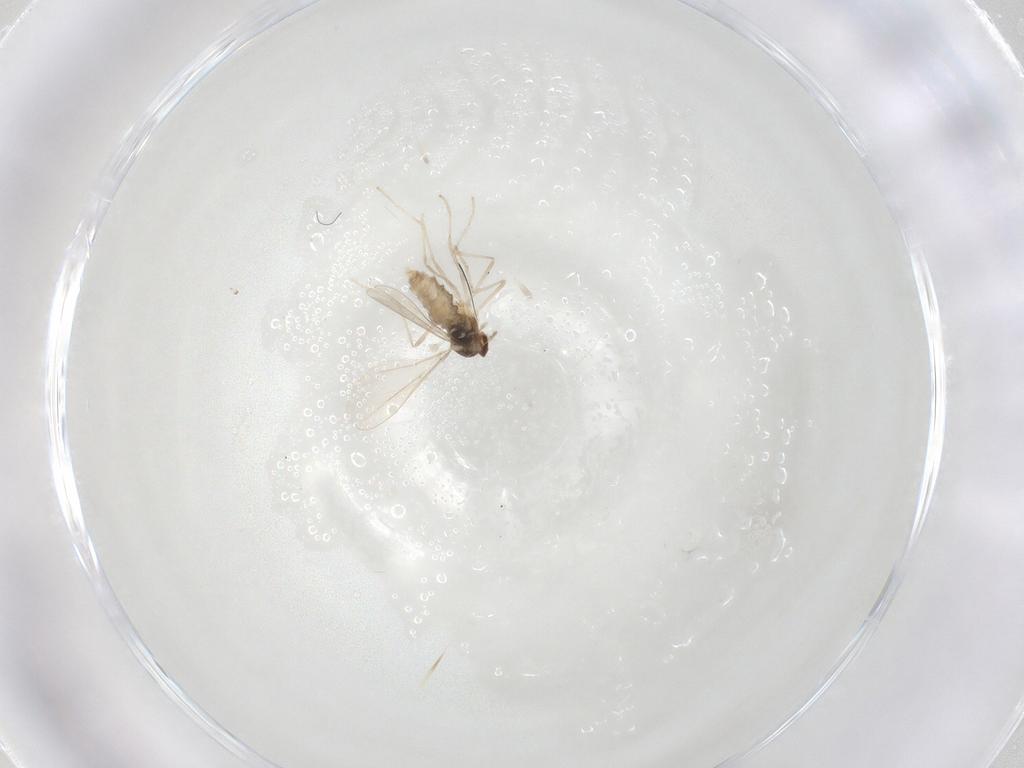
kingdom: Animalia
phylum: Arthropoda
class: Insecta
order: Diptera
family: Cecidomyiidae
